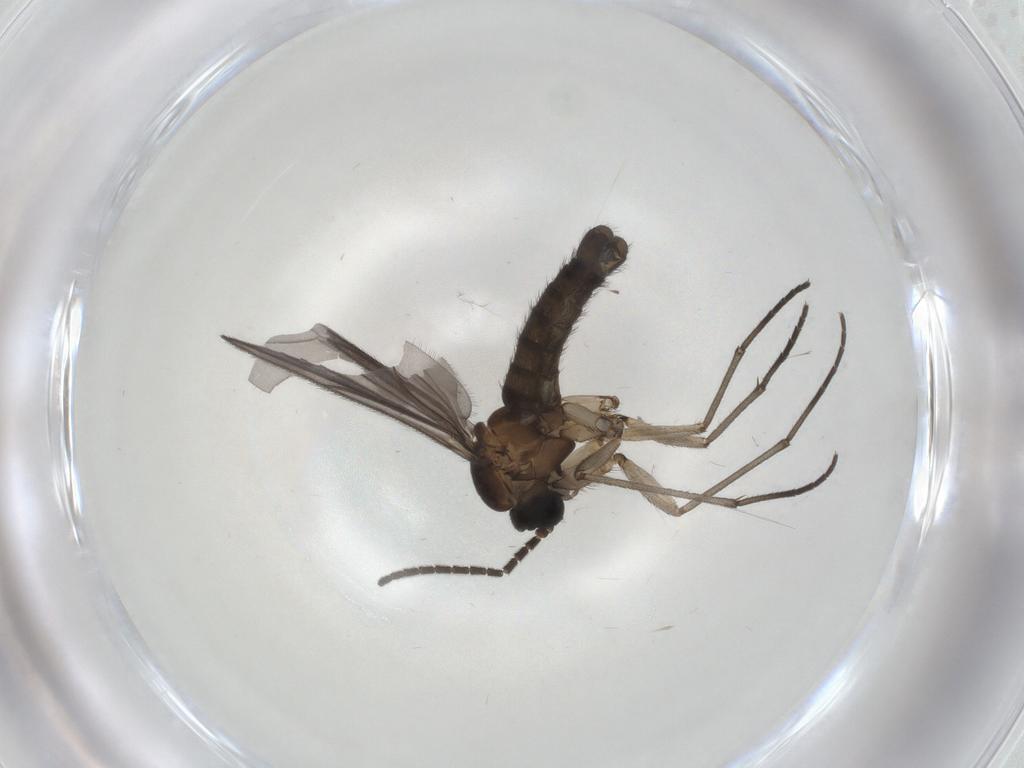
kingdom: Animalia
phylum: Arthropoda
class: Insecta
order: Diptera
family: Sciaridae
